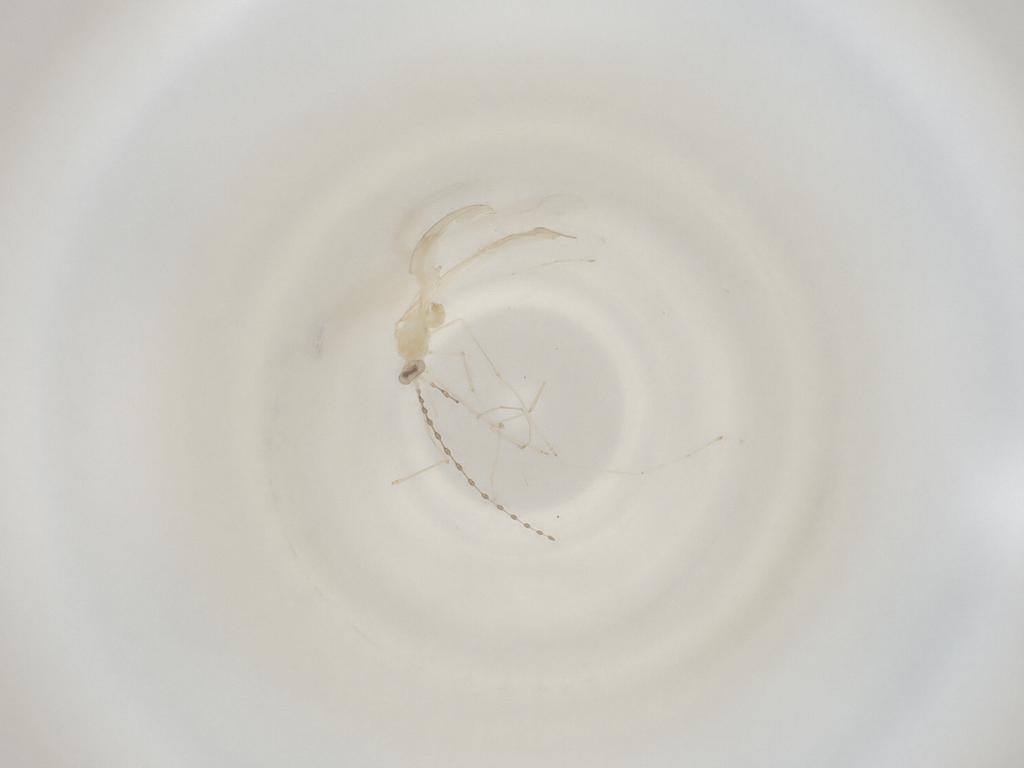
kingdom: Animalia
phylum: Arthropoda
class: Insecta
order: Diptera
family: Cecidomyiidae
